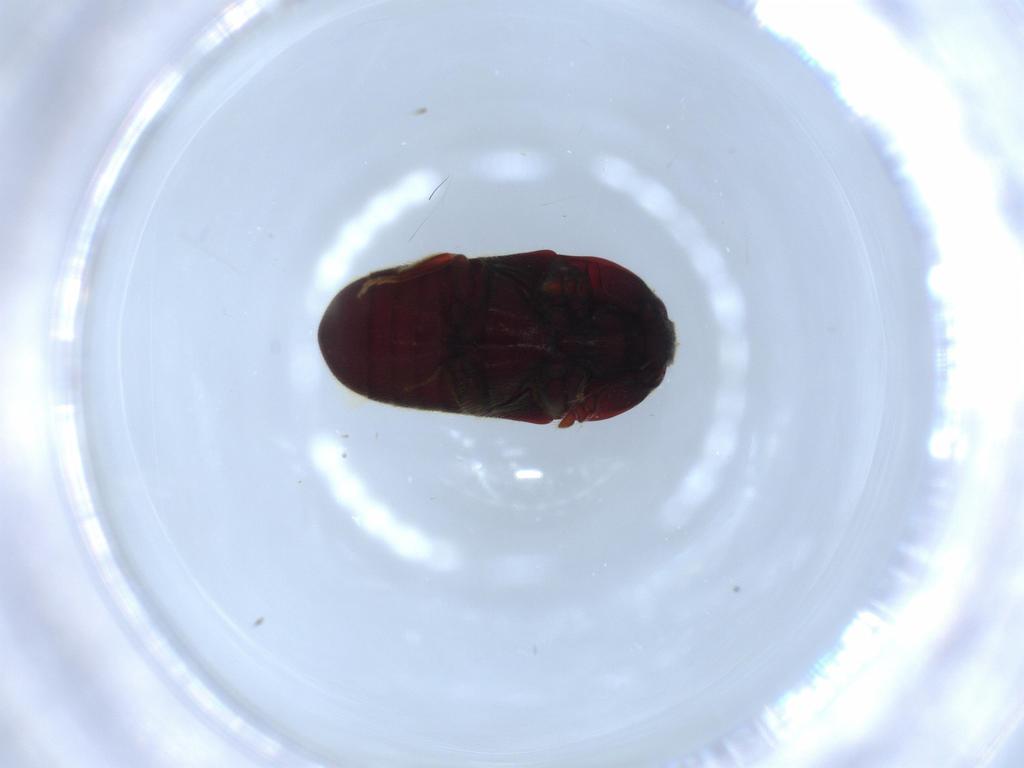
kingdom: Animalia
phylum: Arthropoda
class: Insecta
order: Coleoptera
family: Throscidae
